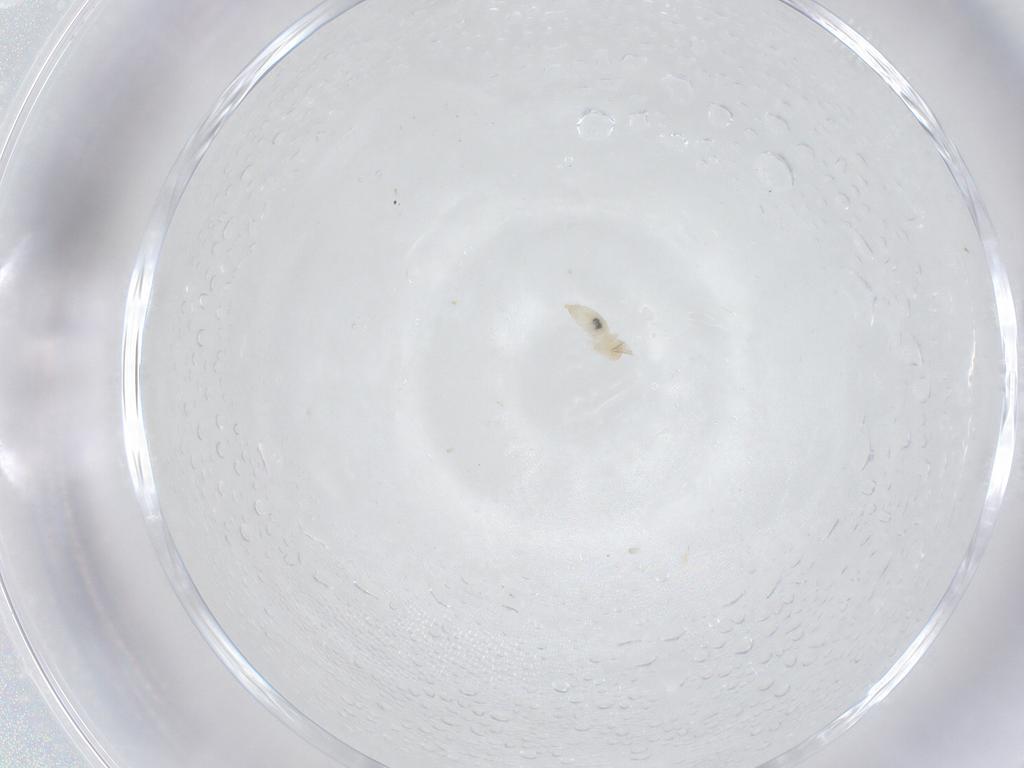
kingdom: Animalia
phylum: Arthropoda
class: Insecta
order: Diptera
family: Cecidomyiidae
